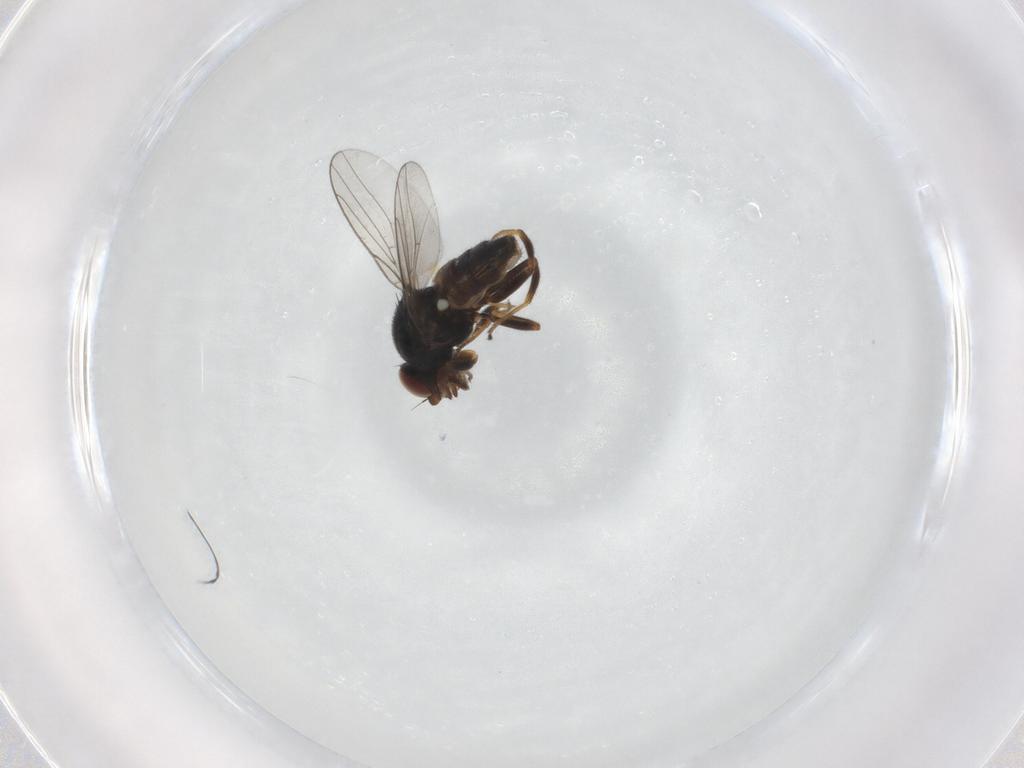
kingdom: Animalia
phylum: Arthropoda
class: Insecta
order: Diptera
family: Chloropidae
